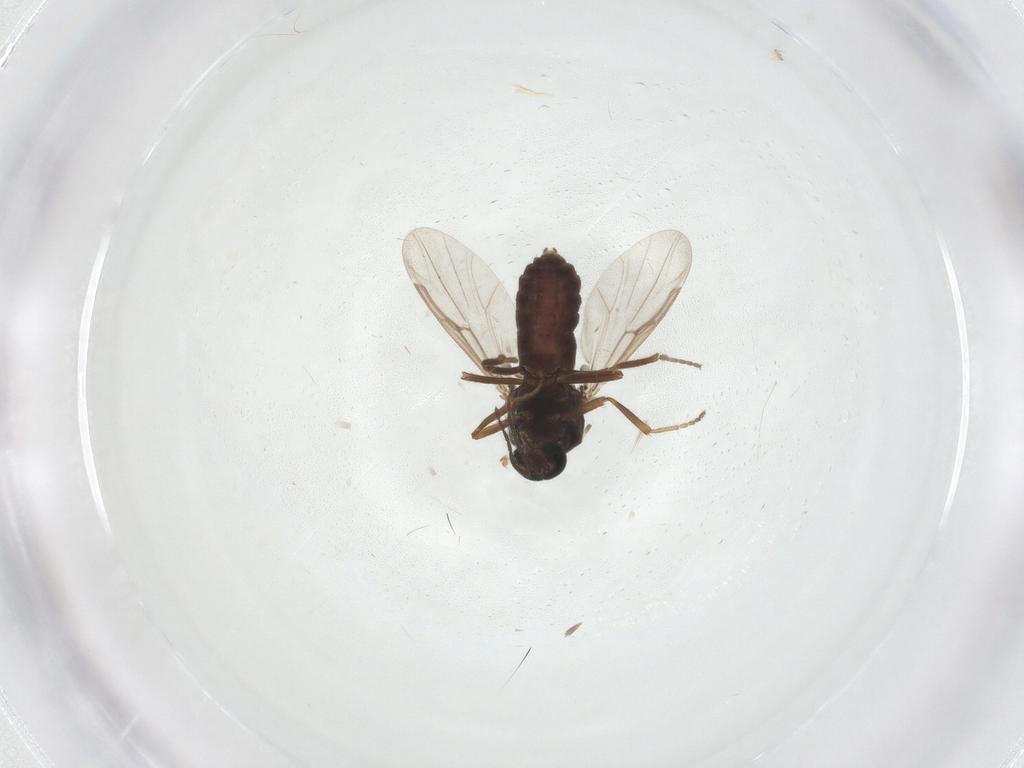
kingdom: Animalia
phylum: Arthropoda
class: Insecta
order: Diptera
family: Ceratopogonidae
